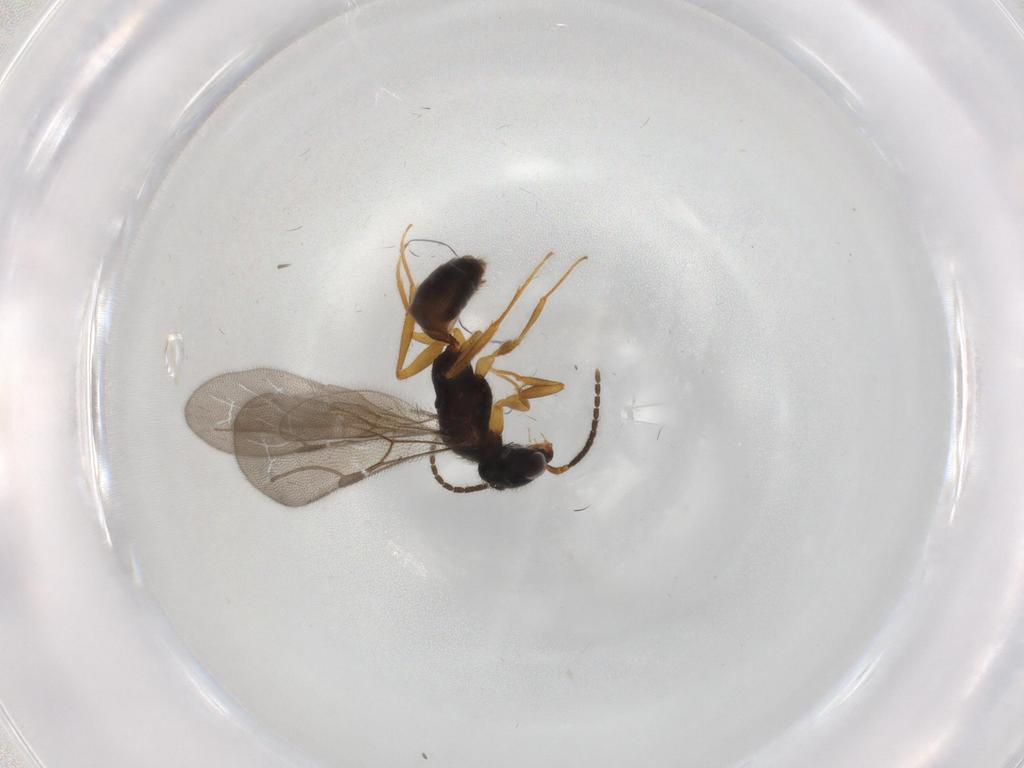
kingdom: Animalia
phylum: Arthropoda
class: Insecta
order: Hymenoptera
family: Bethylidae
